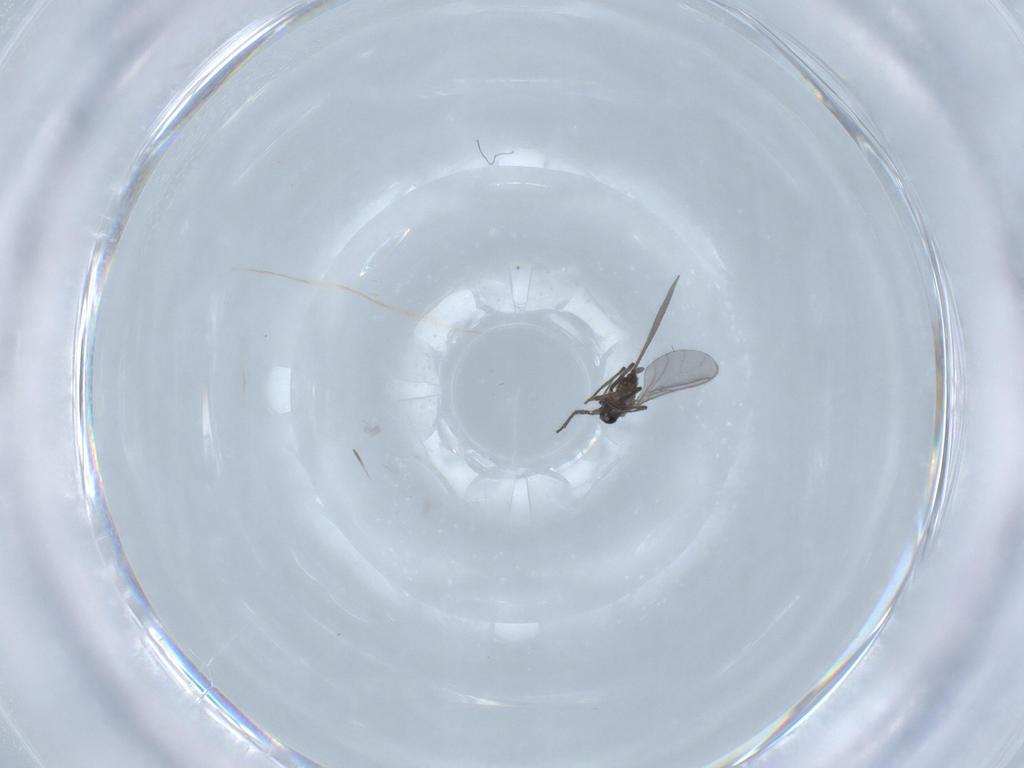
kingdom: Animalia
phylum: Arthropoda
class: Insecta
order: Diptera
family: Sciaridae
